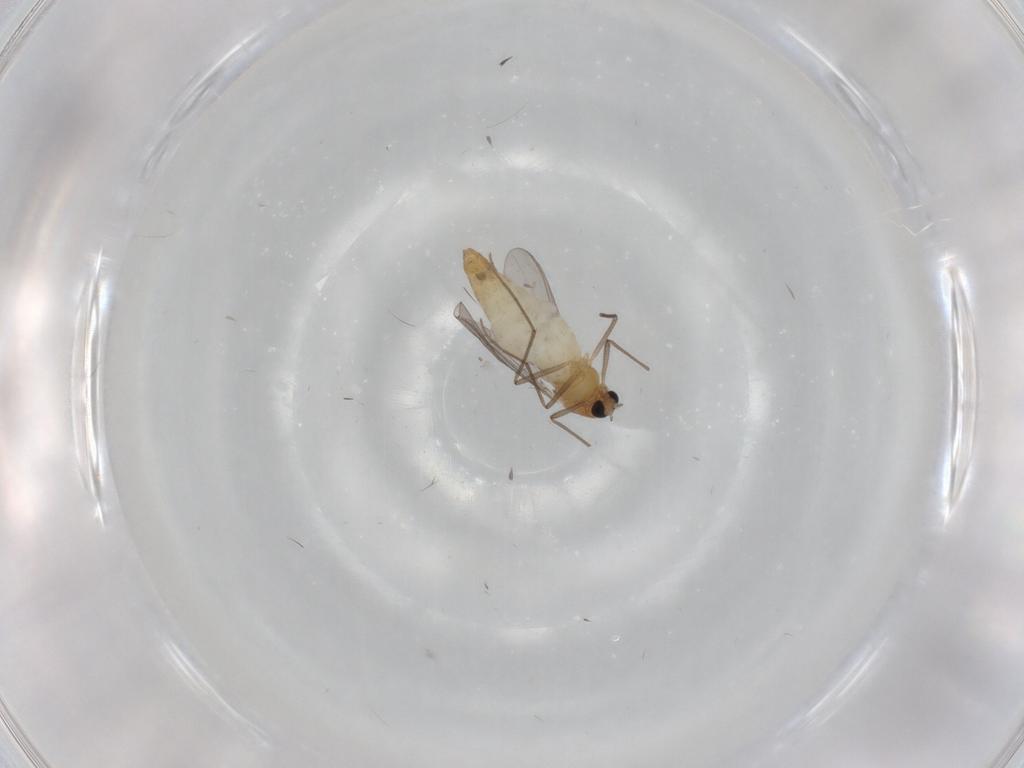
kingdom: Animalia
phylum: Arthropoda
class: Insecta
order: Diptera
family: Chironomidae
